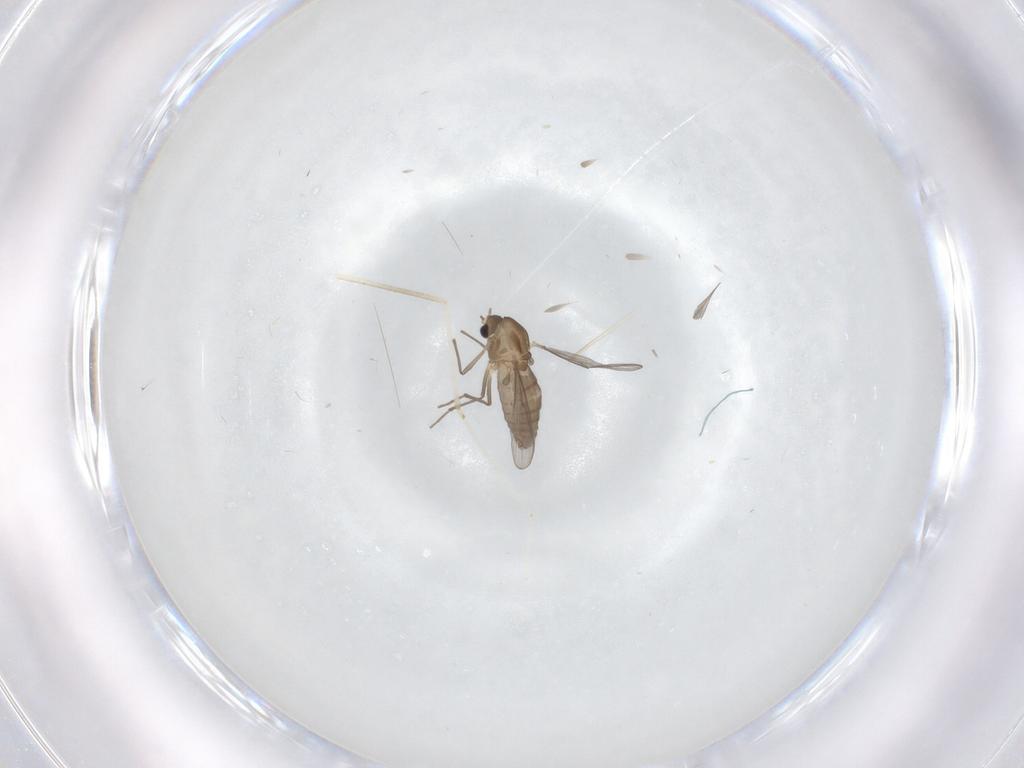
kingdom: Animalia
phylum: Arthropoda
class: Insecta
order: Diptera
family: Chironomidae
